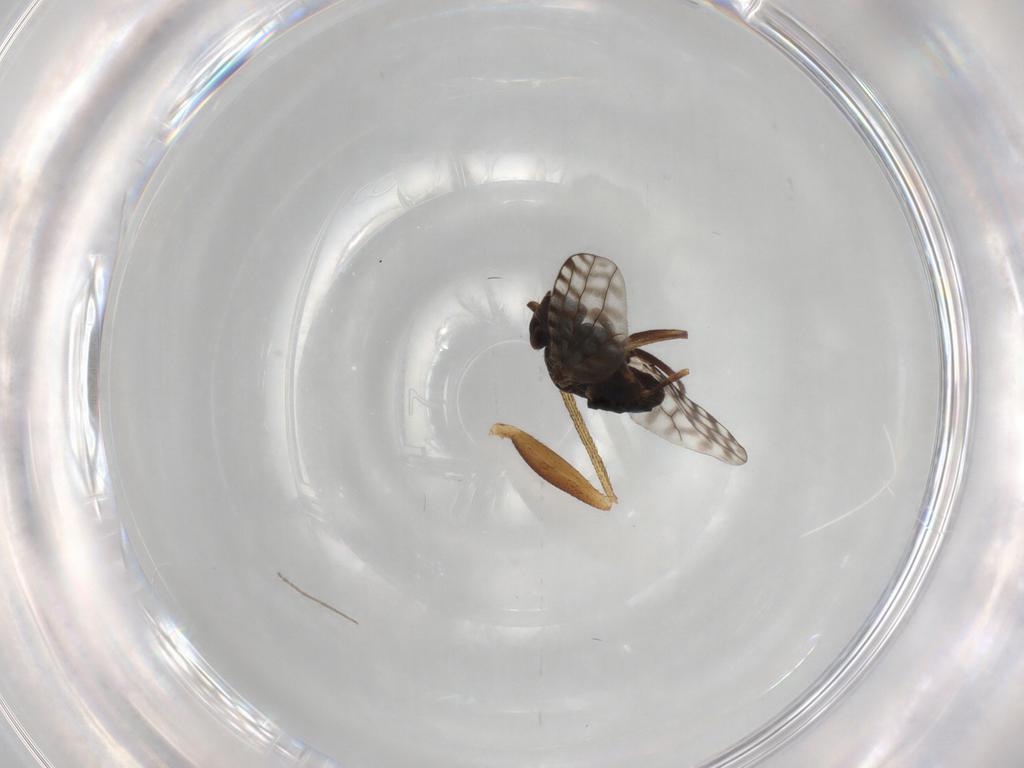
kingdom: Animalia
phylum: Arthropoda
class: Insecta
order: Diptera
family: Ephydridae
